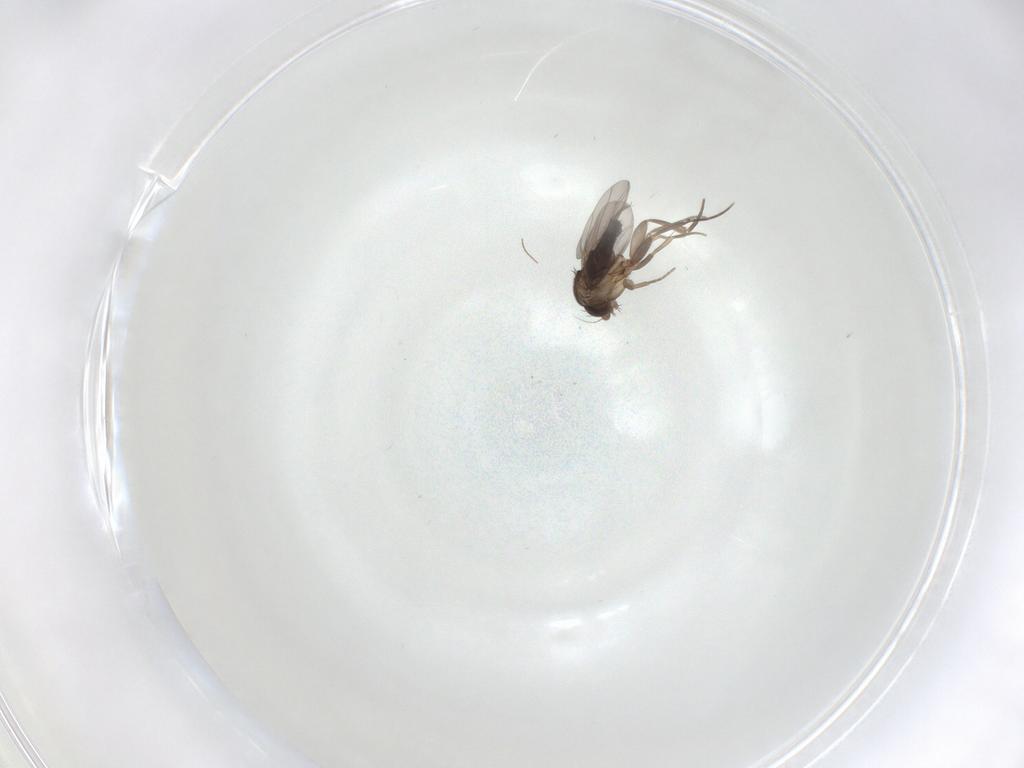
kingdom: Animalia
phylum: Arthropoda
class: Insecta
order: Diptera
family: Phoridae
